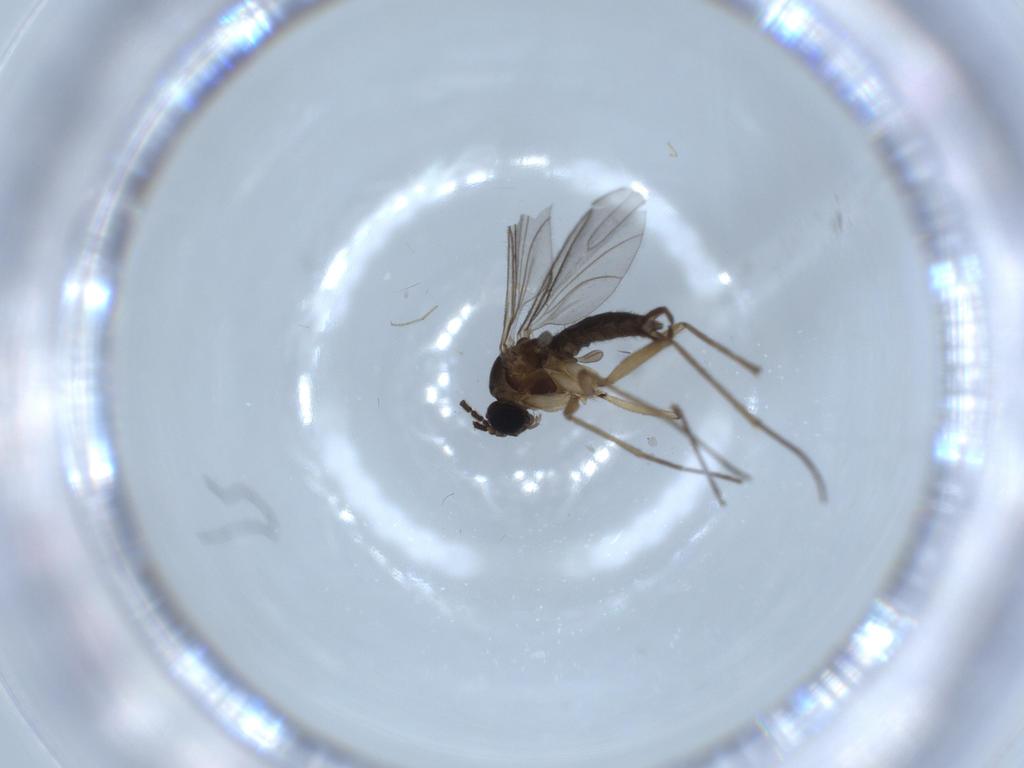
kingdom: Animalia
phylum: Arthropoda
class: Insecta
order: Diptera
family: Sciaridae
